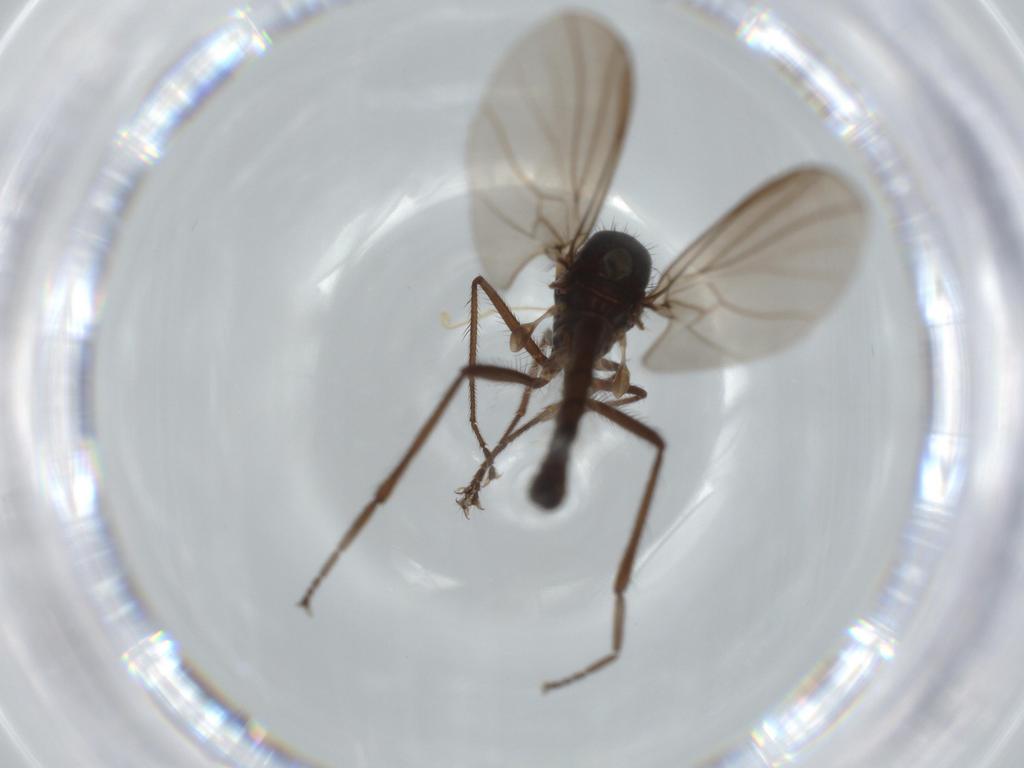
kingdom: Animalia
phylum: Arthropoda
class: Insecta
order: Diptera
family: Hybotidae
